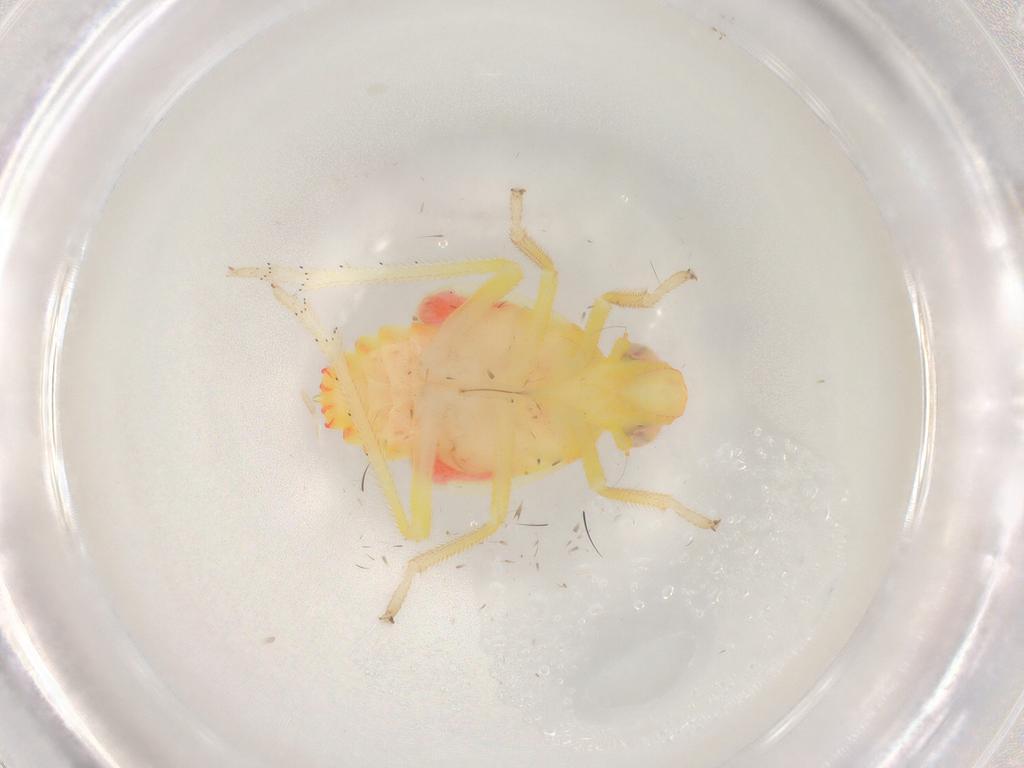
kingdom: Animalia
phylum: Arthropoda
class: Insecta
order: Hemiptera
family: Tropiduchidae
